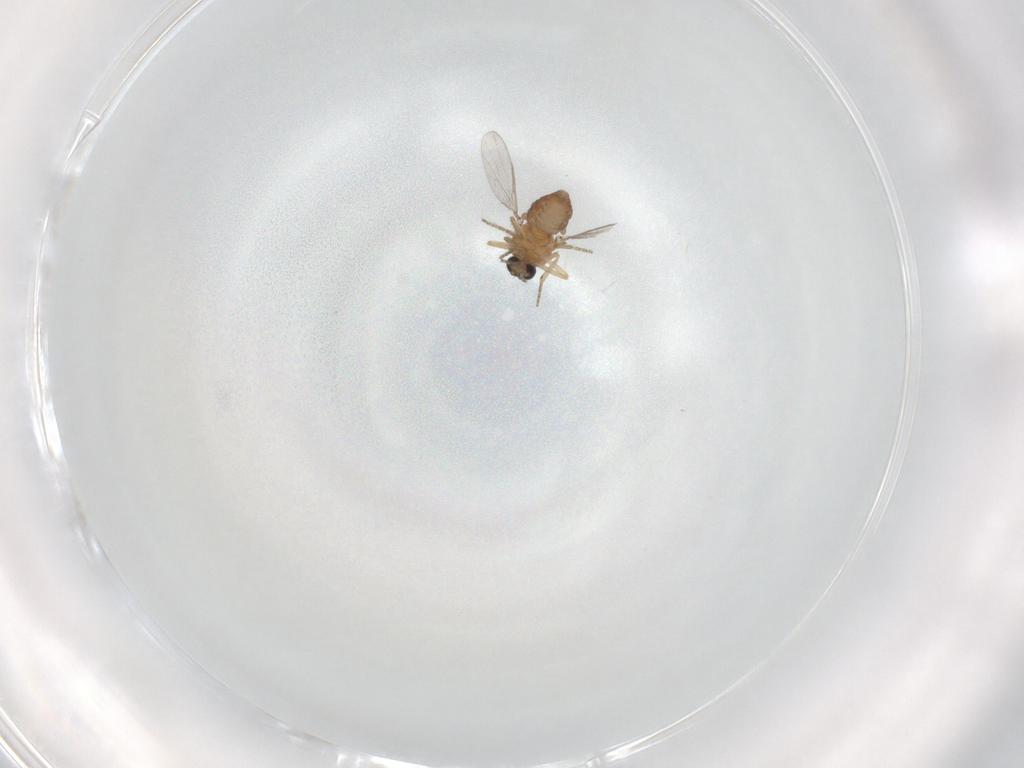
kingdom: Animalia
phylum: Arthropoda
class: Insecta
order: Diptera
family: Ceratopogonidae
